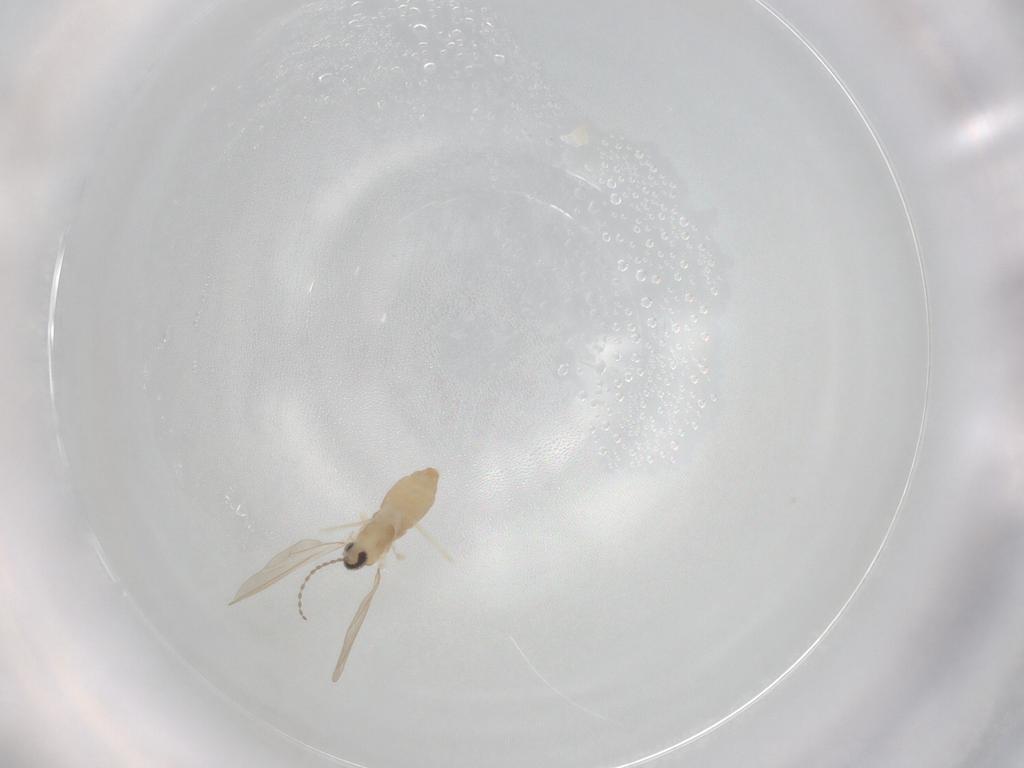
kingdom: Animalia
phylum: Arthropoda
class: Insecta
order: Diptera
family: Cecidomyiidae
